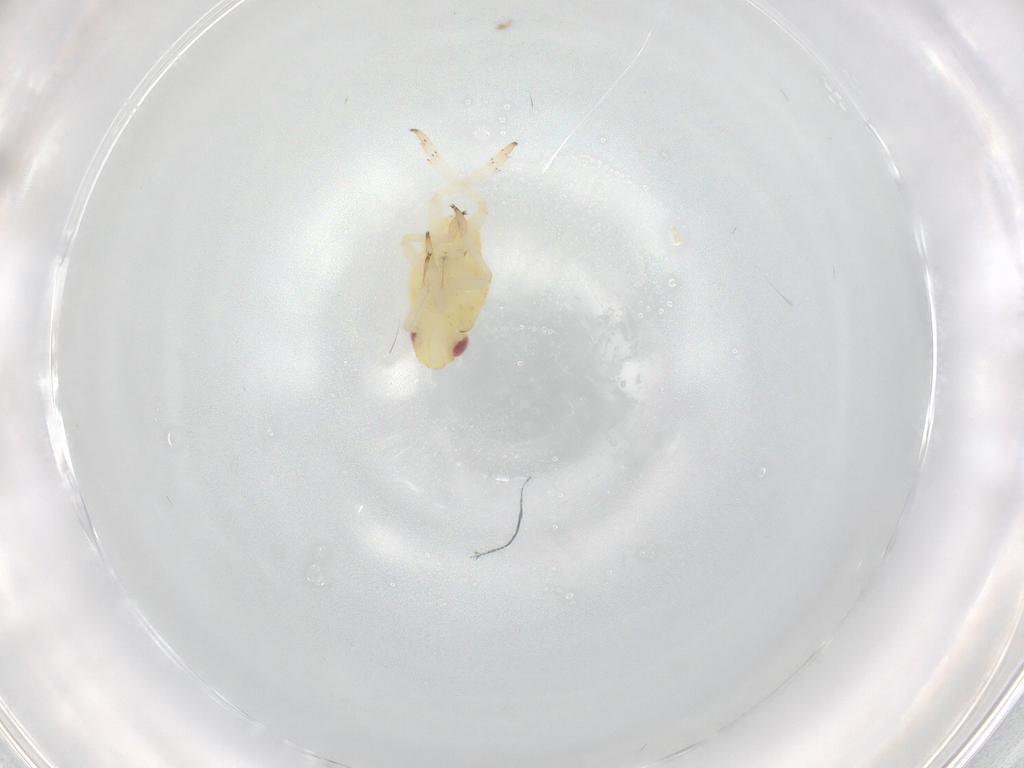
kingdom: Animalia
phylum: Arthropoda
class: Insecta
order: Hemiptera
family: Caliscelidae
